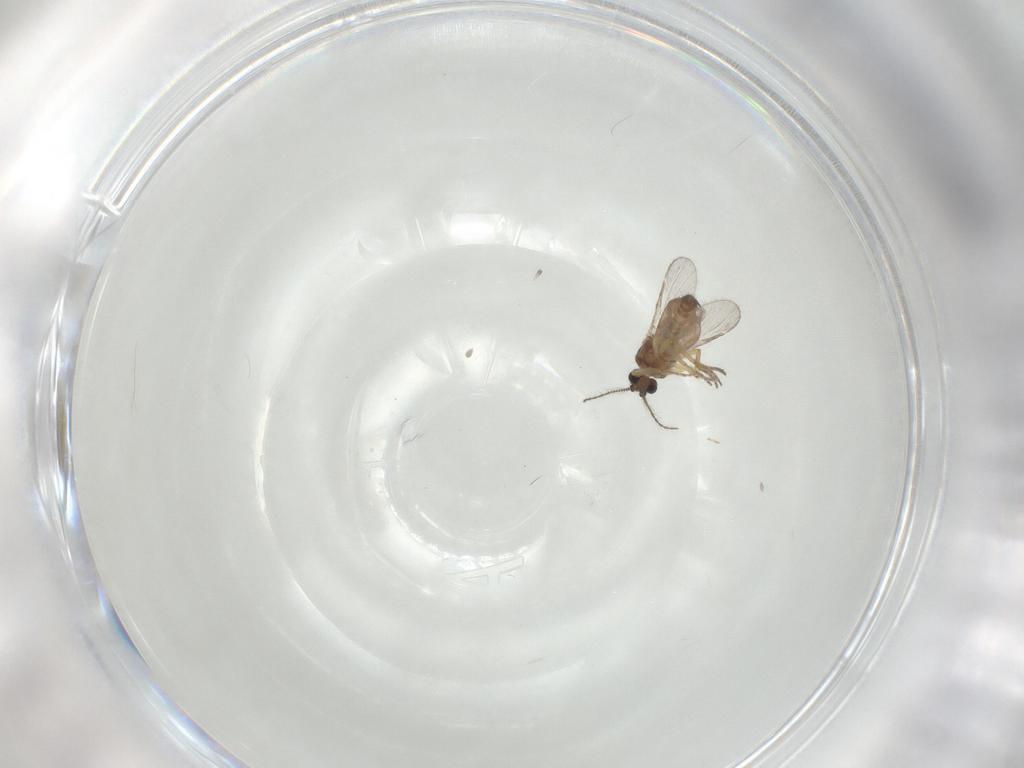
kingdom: Animalia
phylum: Arthropoda
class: Insecta
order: Diptera
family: Ceratopogonidae
